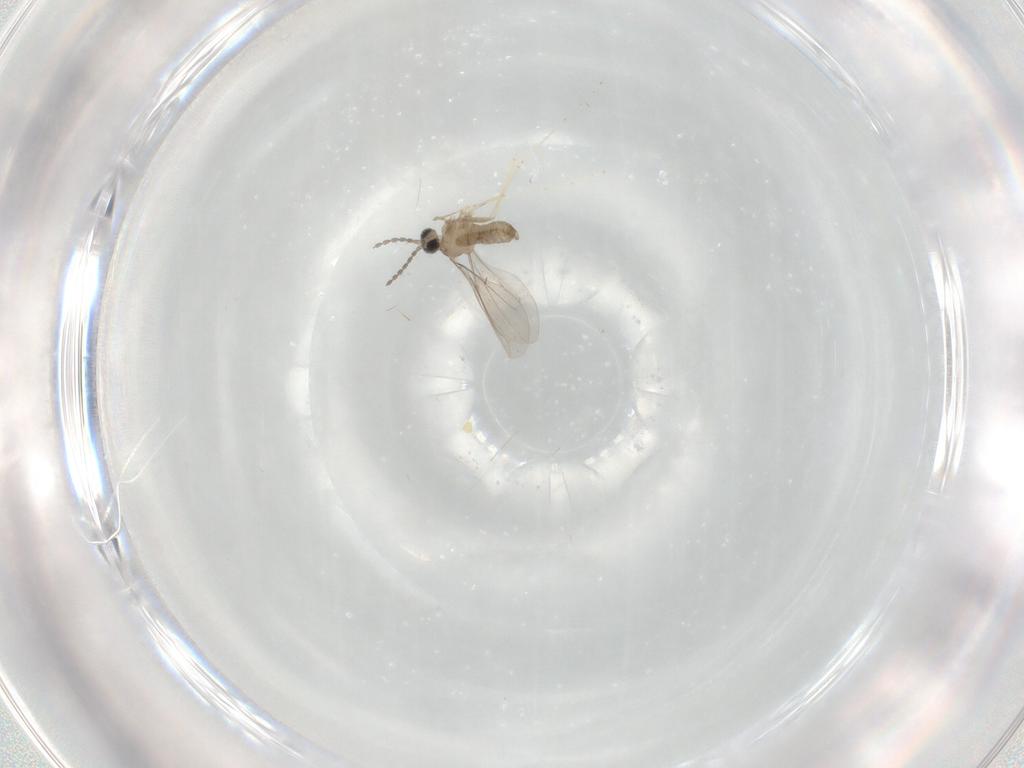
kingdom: Animalia
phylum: Arthropoda
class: Insecta
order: Diptera
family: Cecidomyiidae
